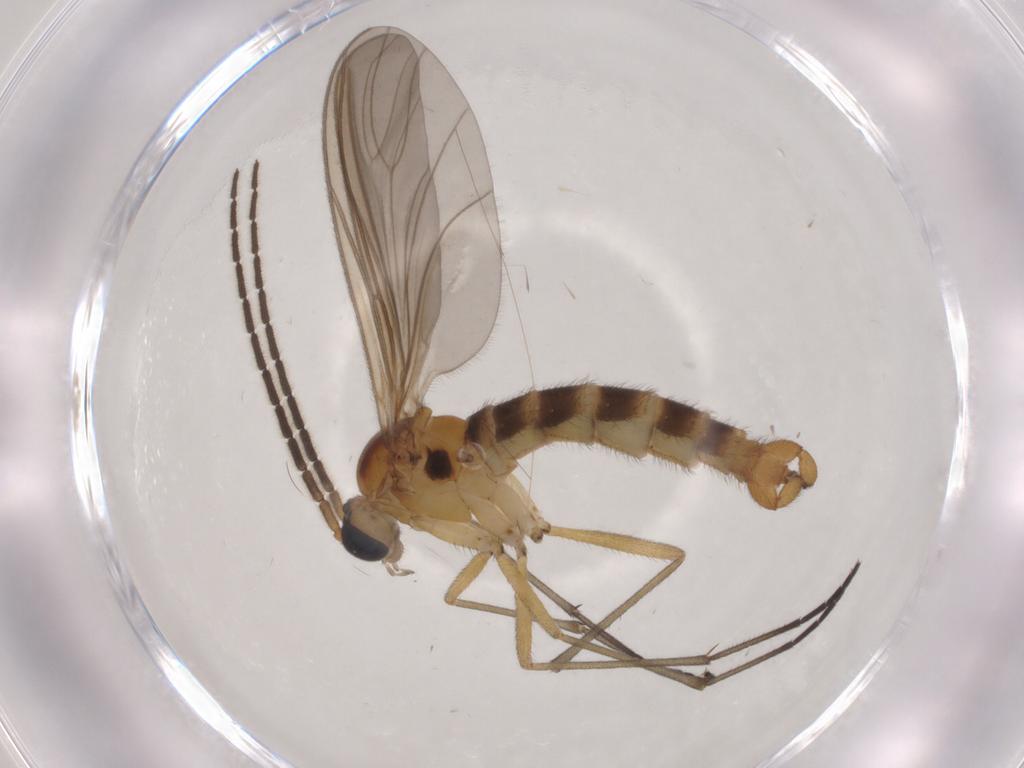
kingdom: Animalia
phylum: Arthropoda
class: Insecta
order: Diptera
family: Sciaridae
